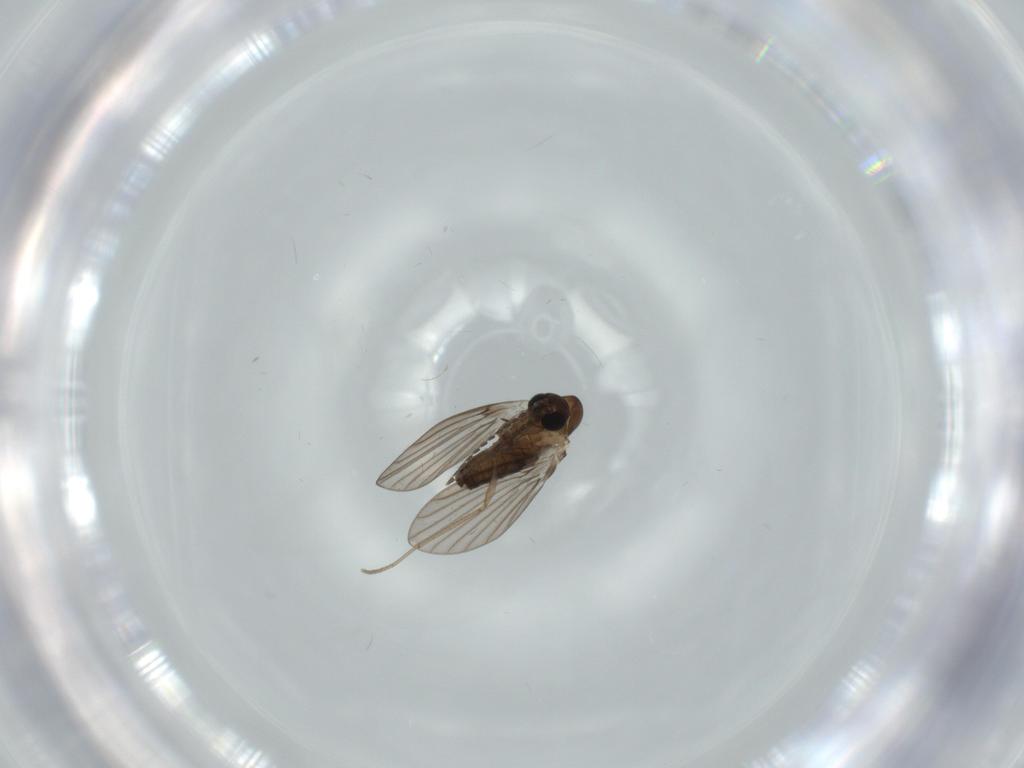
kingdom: Animalia
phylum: Arthropoda
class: Insecta
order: Diptera
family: Psychodidae
